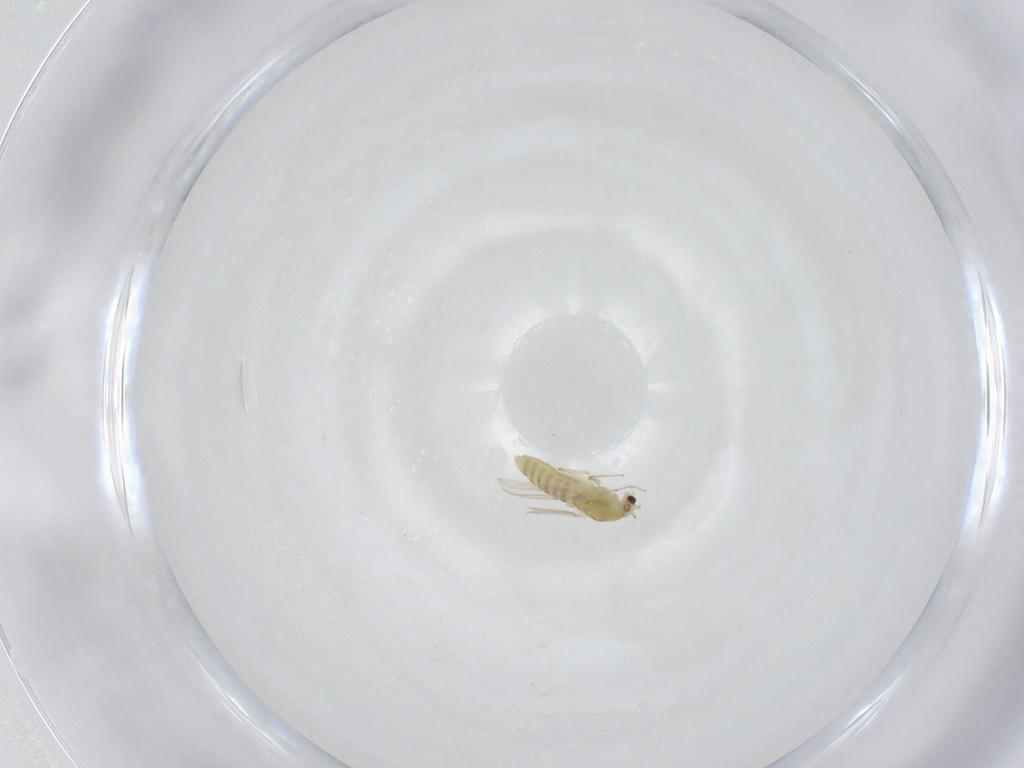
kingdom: Animalia
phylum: Arthropoda
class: Insecta
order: Diptera
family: Chironomidae
